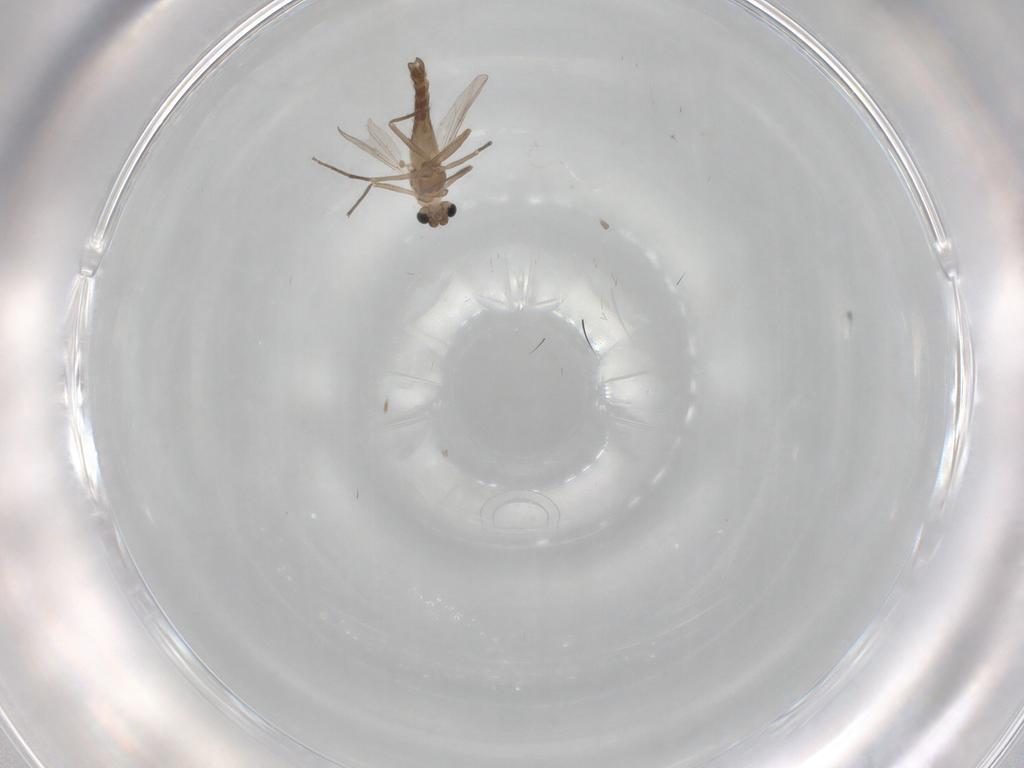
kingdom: Animalia
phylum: Arthropoda
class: Insecta
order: Diptera
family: Chironomidae
